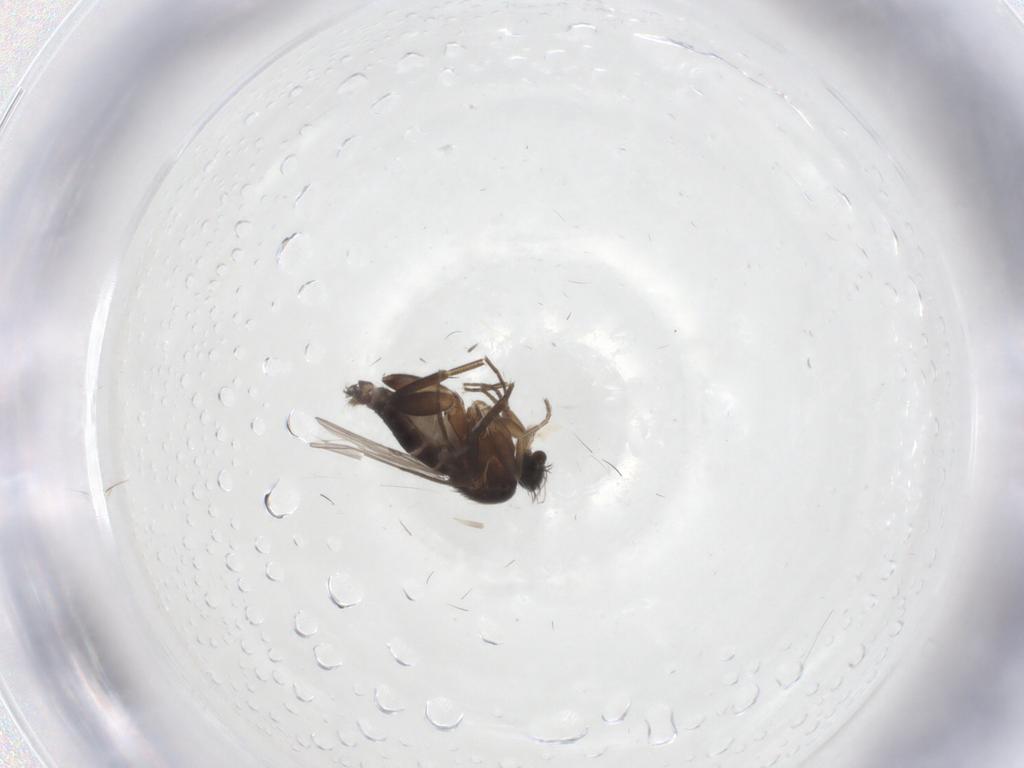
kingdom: Animalia
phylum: Arthropoda
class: Insecta
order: Diptera
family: Phoridae
